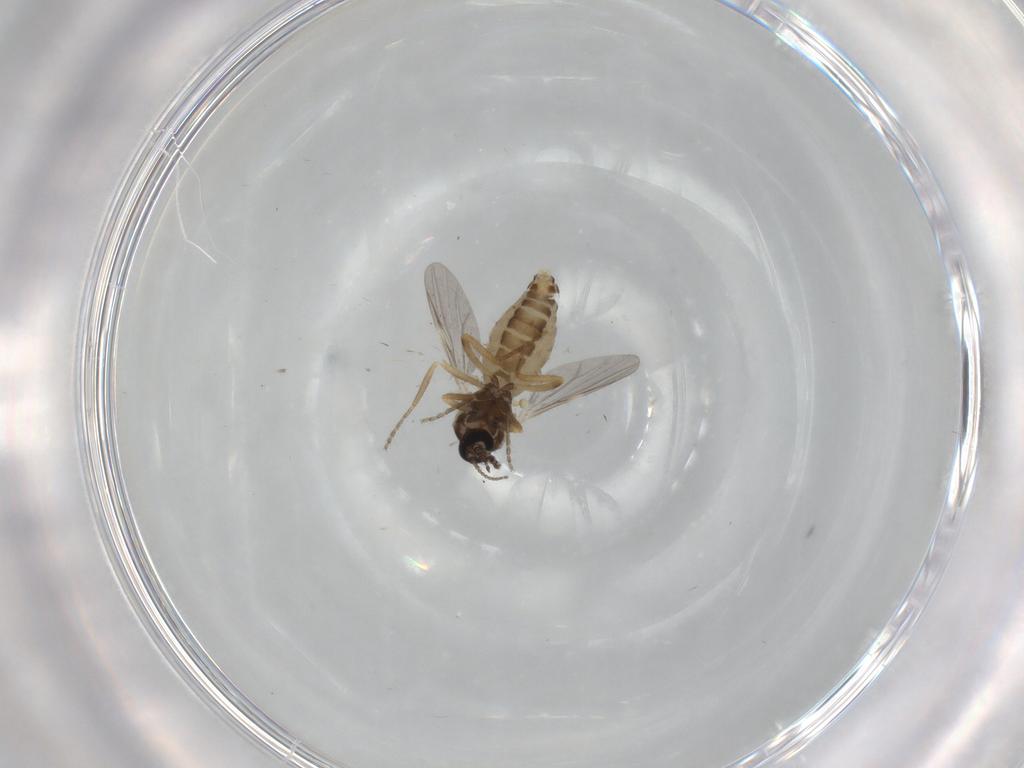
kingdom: Animalia
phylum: Arthropoda
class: Insecta
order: Diptera
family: Ceratopogonidae
